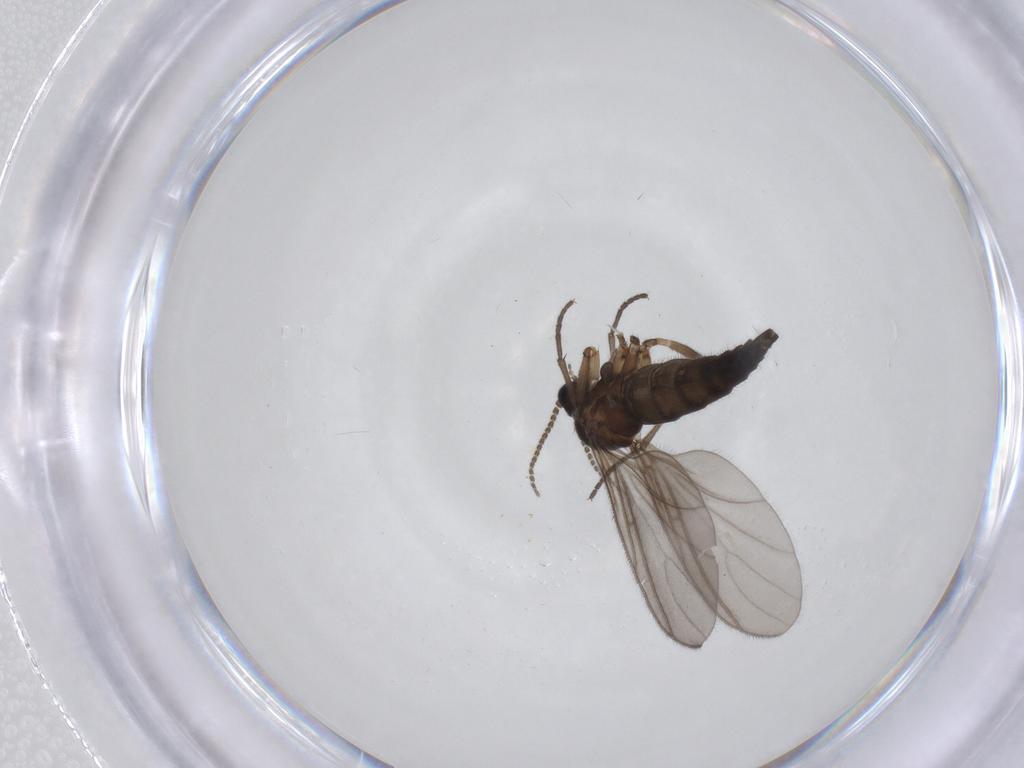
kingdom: Animalia
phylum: Arthropoda
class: Insecta
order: Diptera
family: Sciaridae
